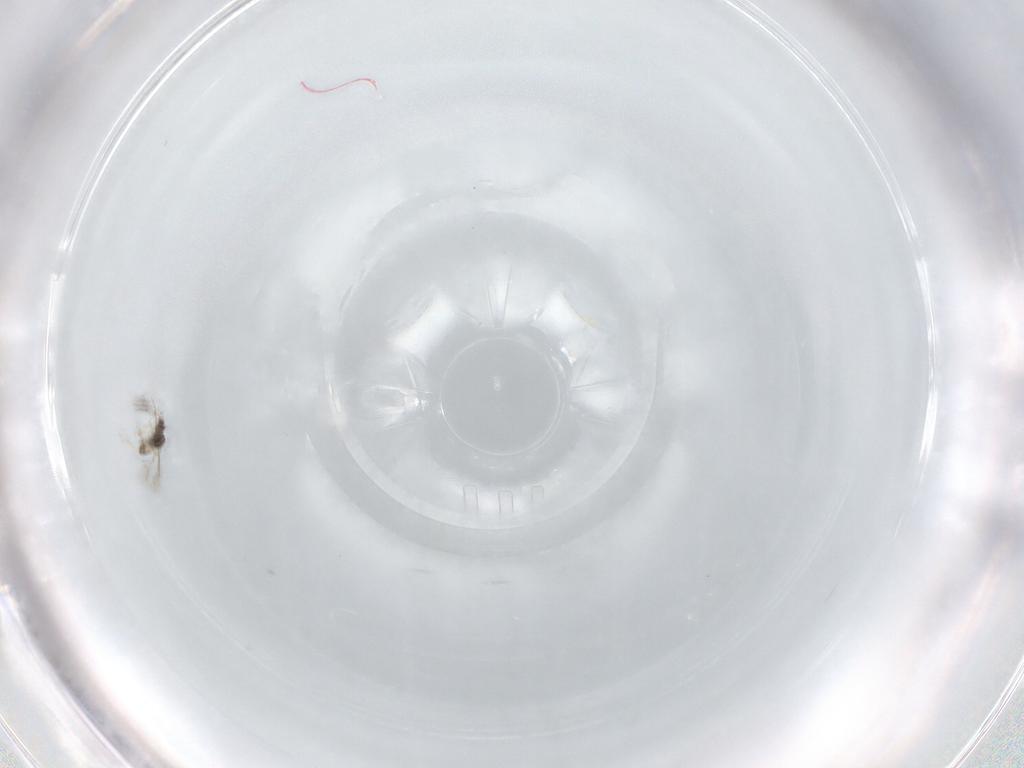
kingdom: Animalia
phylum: Arthropoda
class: Insecta
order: Hymenoptera
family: Mymaridae
